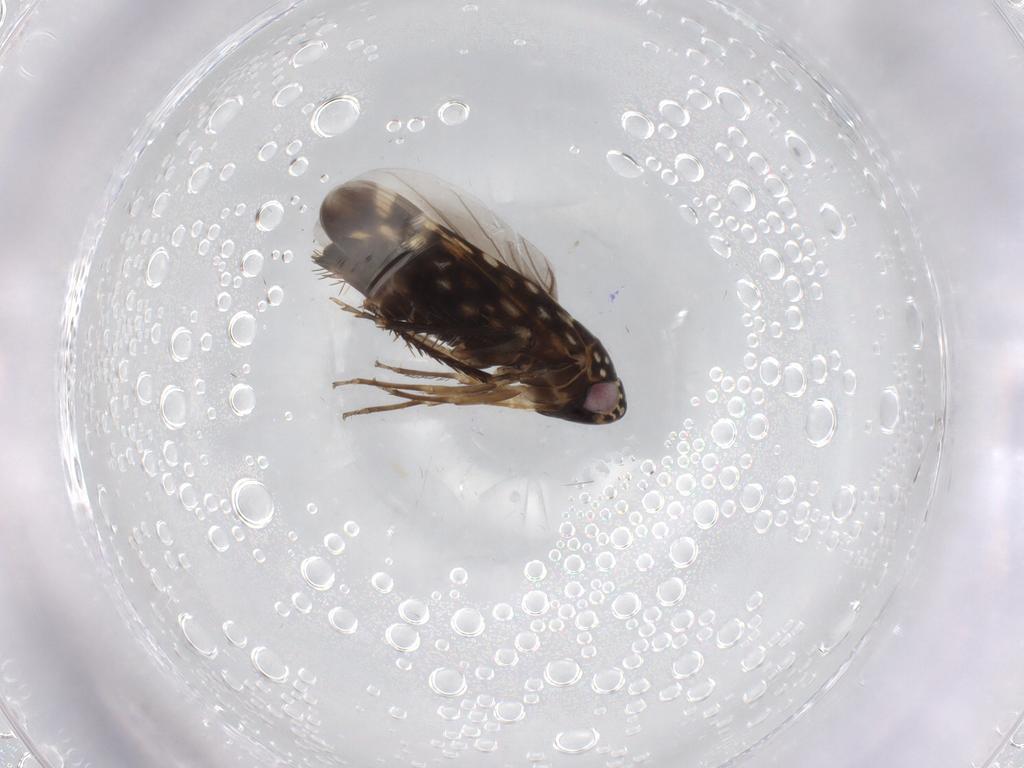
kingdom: Animalia
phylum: Arthropoda
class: Insecta
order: Hemiptera
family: Cicadellidae
